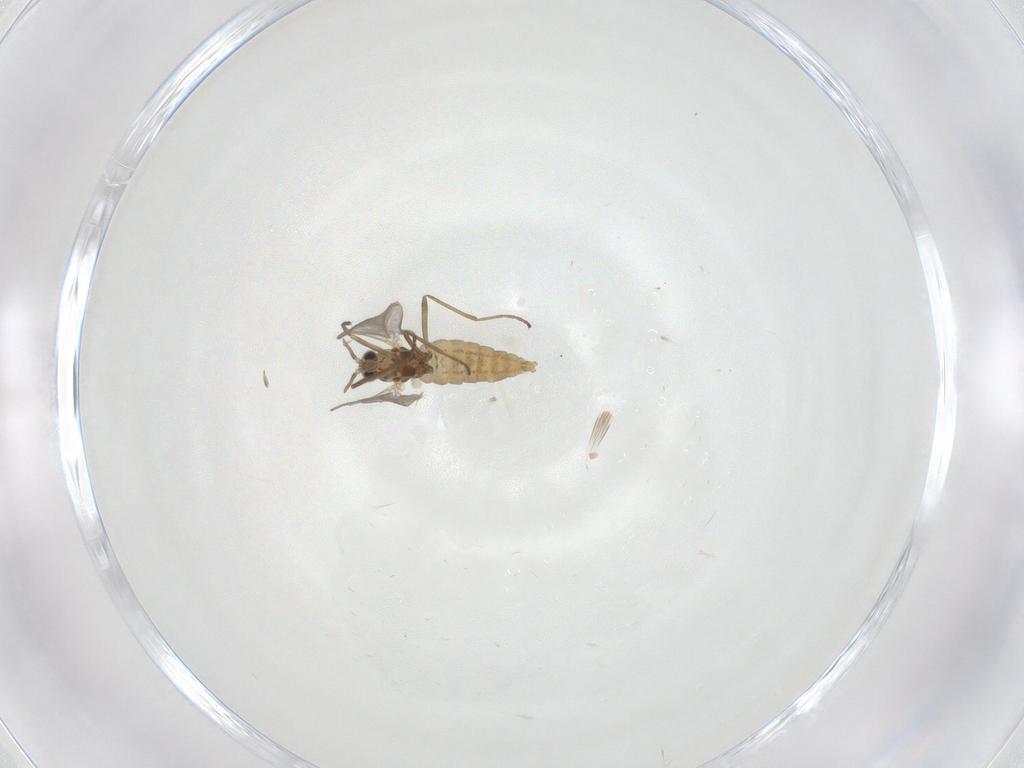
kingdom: Animalia
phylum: Arthropoda
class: Insecta
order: Diptera
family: Cecidomyiidae
